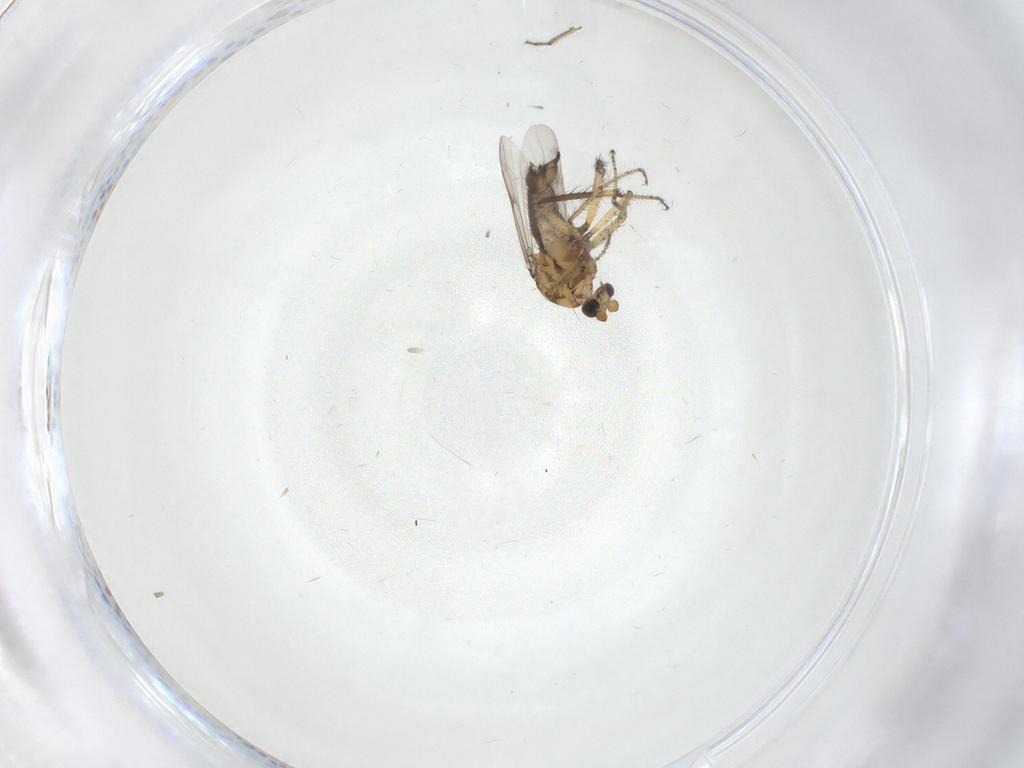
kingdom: Animalia
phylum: Arthropoda
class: Insecta
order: Diptera
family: Ceratopogonidae
